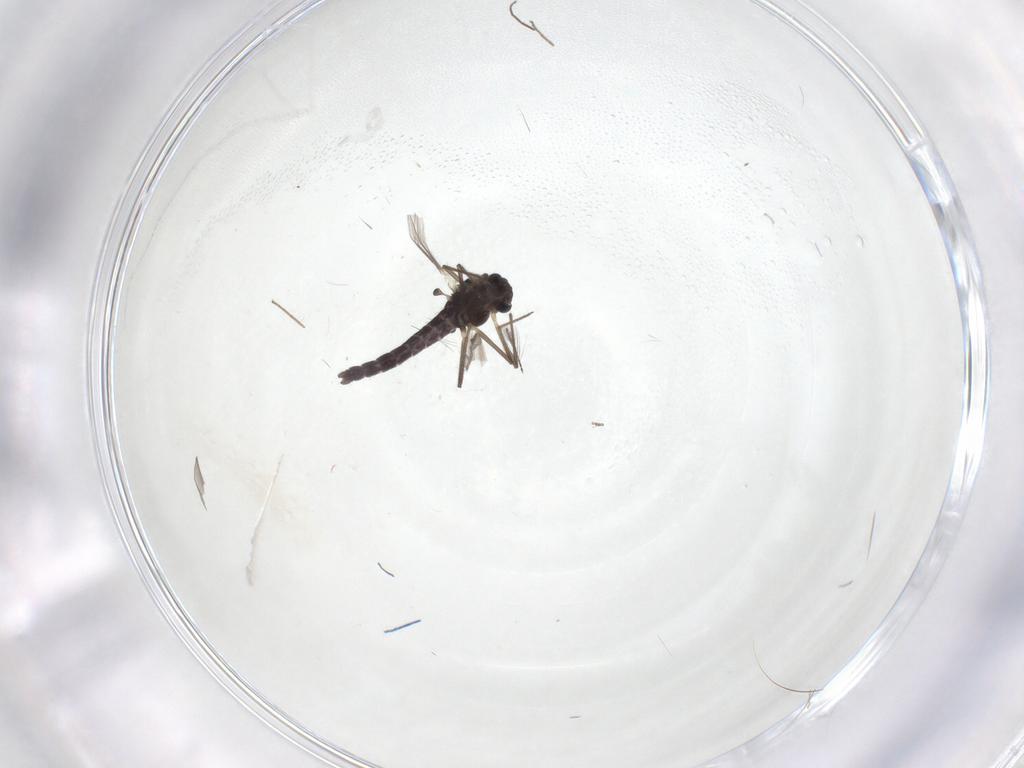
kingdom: Animalia
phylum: Arthropoda
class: Insecta
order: Diptera
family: Chironomidae
